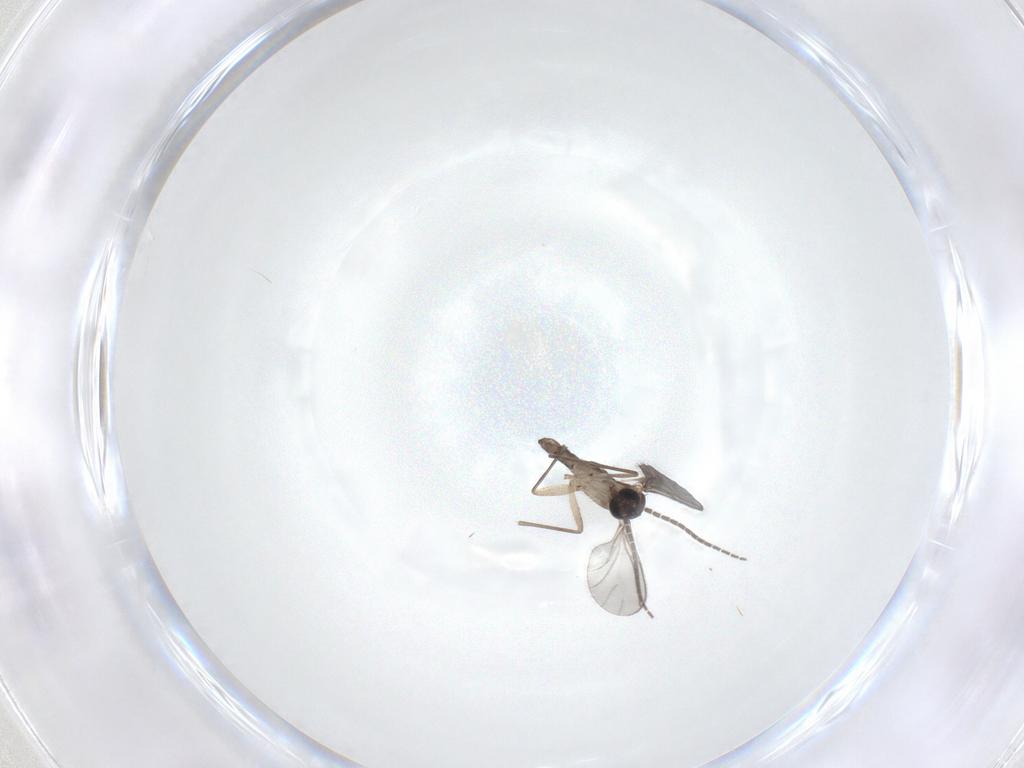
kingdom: Animalia
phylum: Arthropoda
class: Insecta
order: Diptera
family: Sciaridae
